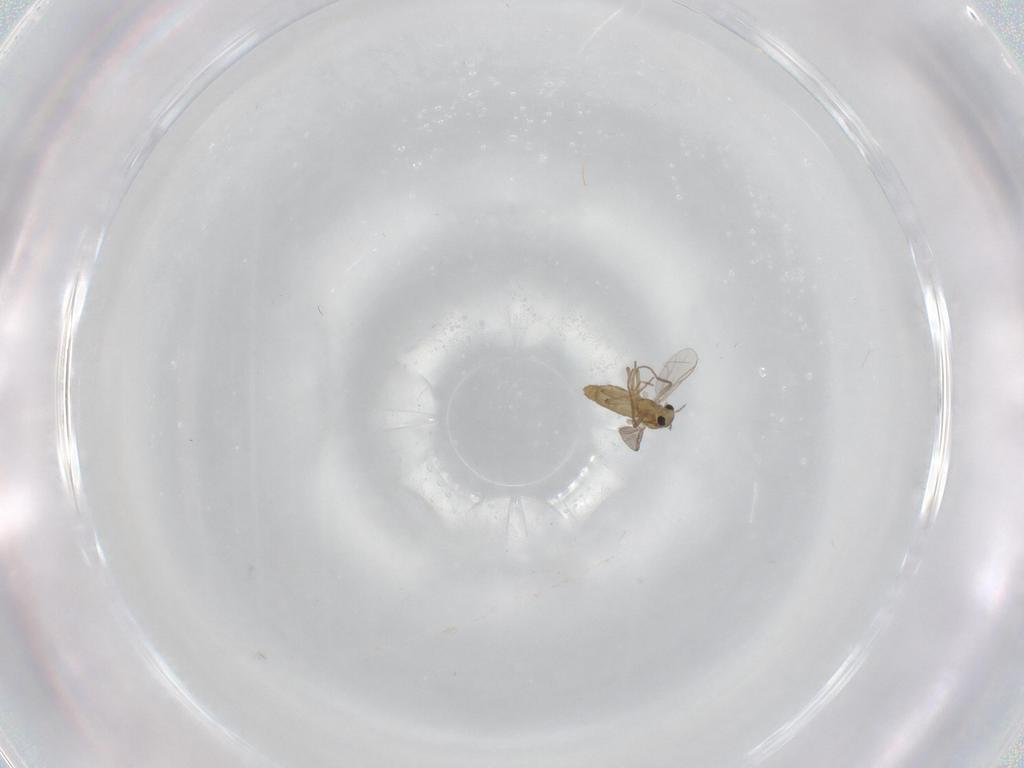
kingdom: Animalia
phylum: Arthropoda
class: Insecta
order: Diptera
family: Chironomidae
